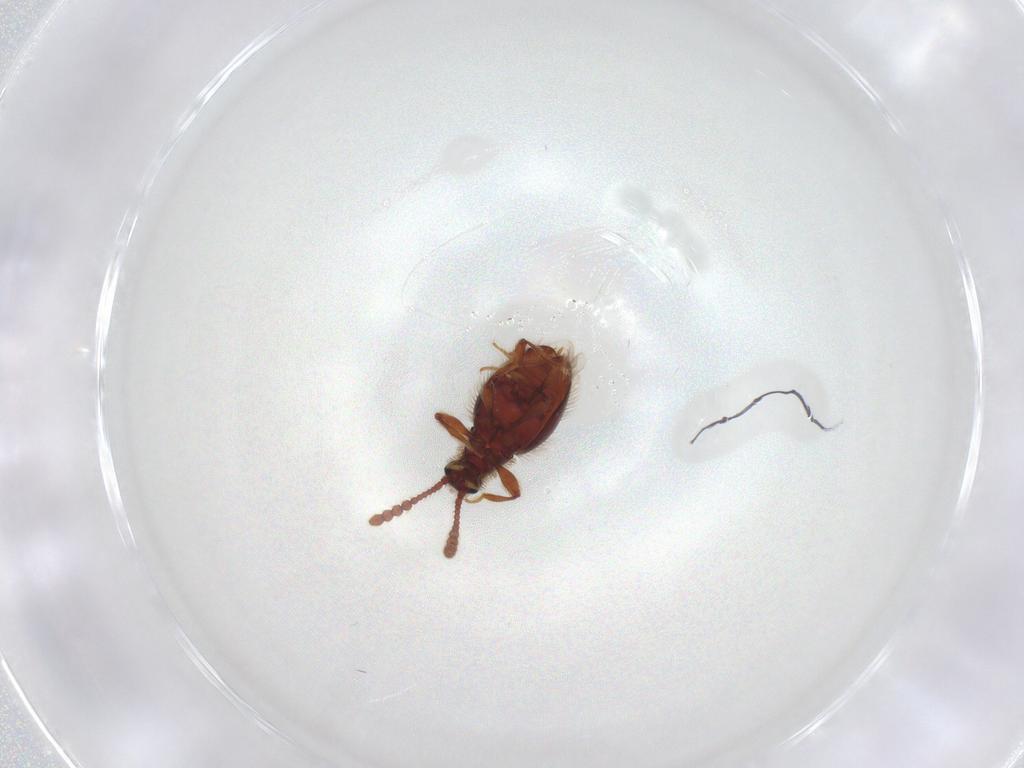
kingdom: Animalia
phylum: Arthropoda
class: Insecta
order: Coleoptera
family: Staphylinidae
